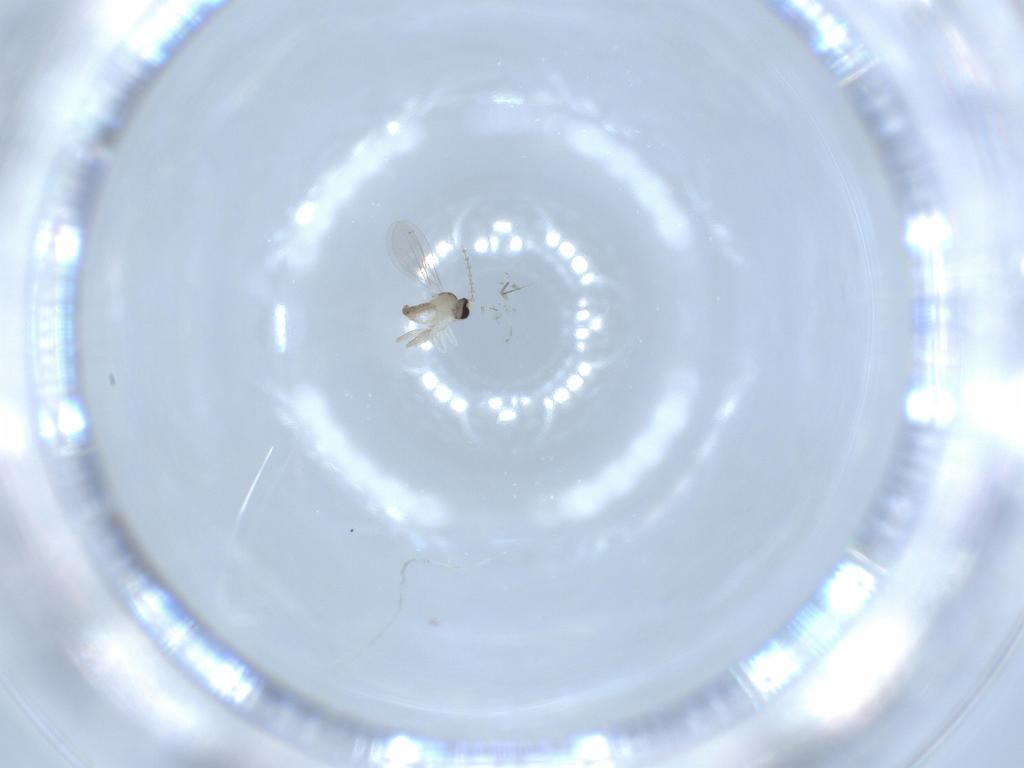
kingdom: Animalia
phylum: Arthropoda
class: Insecta
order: Diptera
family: Cecidomyiidae
